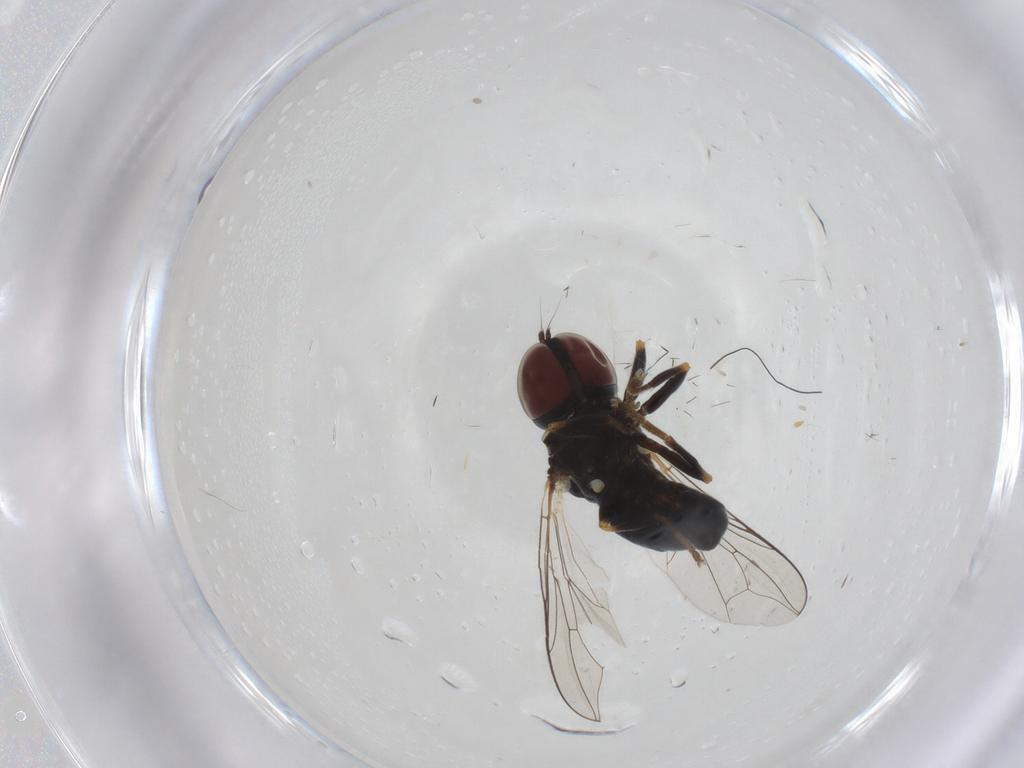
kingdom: Animalia
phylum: Arthropoda
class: Insecta
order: Diptera
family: Pipunculidae
